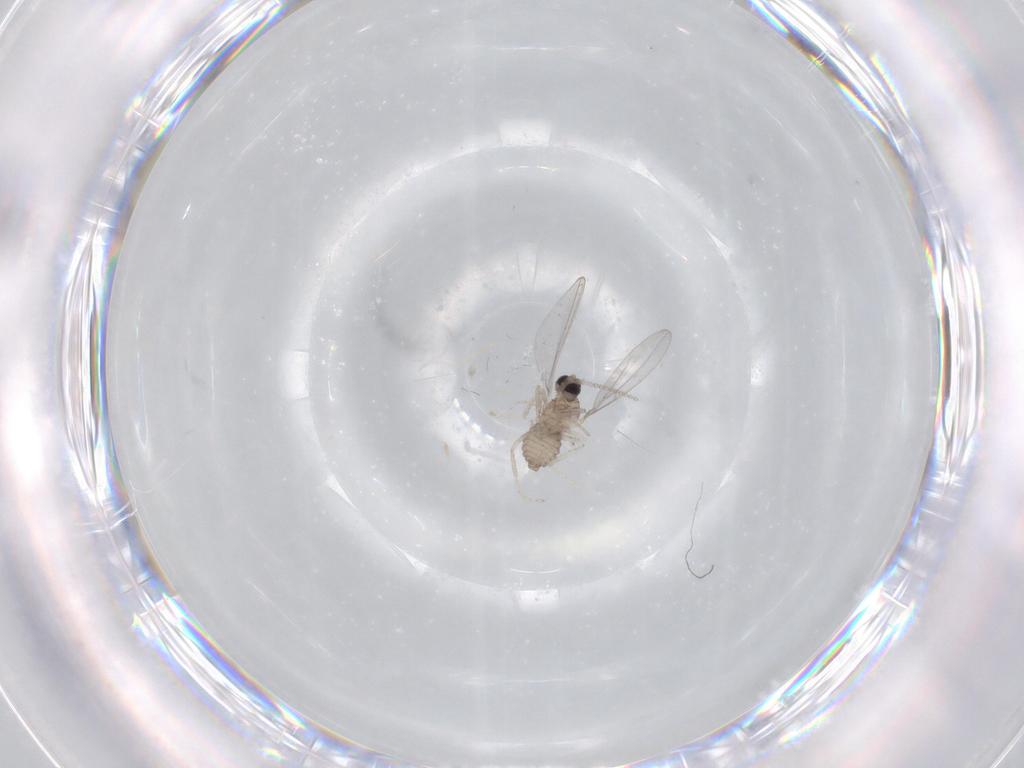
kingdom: Animalia
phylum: Arthropoda
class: Insecta
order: Diptera
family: Cecidomyiidae
